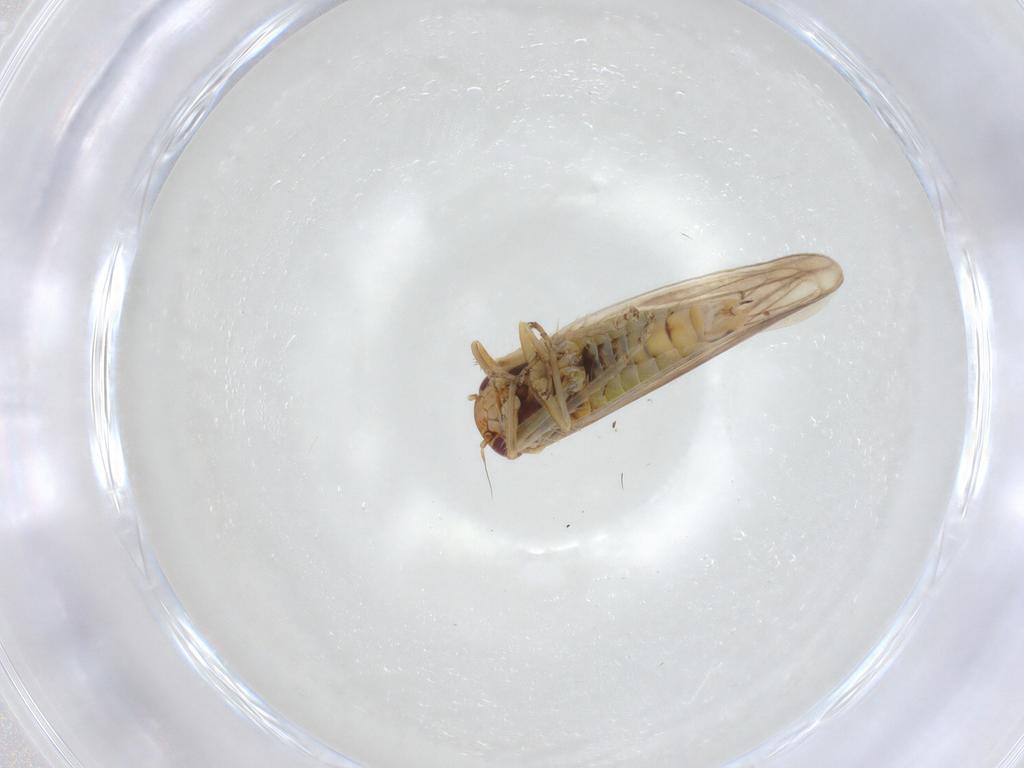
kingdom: Animalia
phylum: Arthropoda
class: Insecta
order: Hemiptera
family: Cicadellidae
